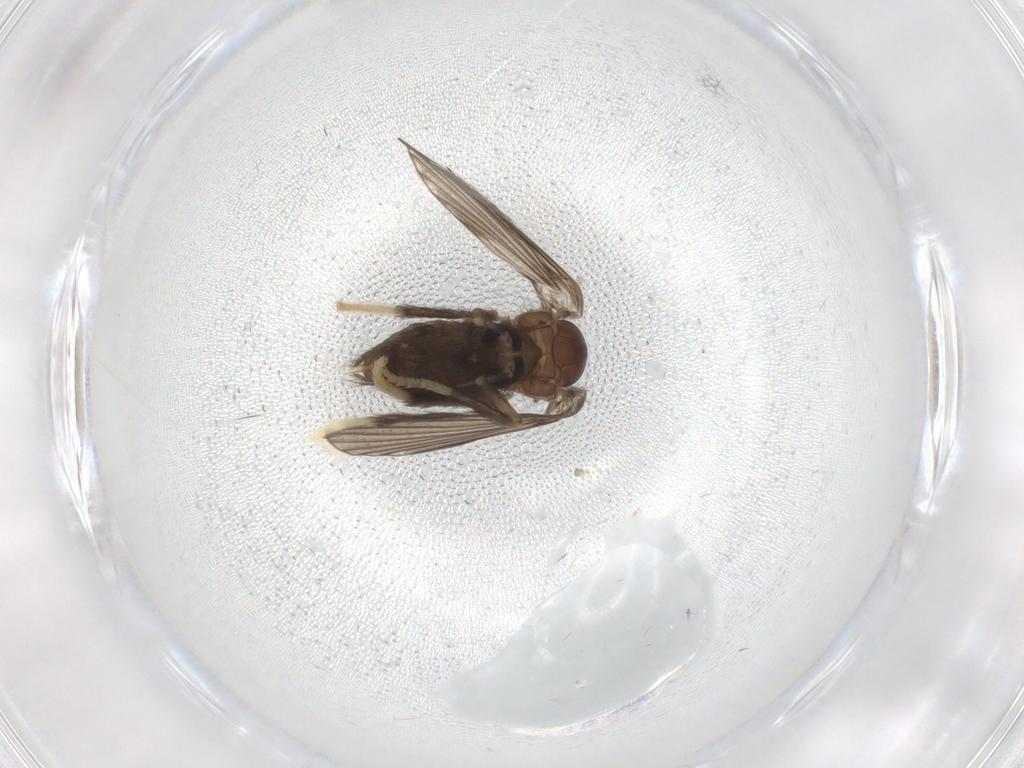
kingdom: Animalia
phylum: Arthropoda
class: Insecta
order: Diptera
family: Psychodidae
